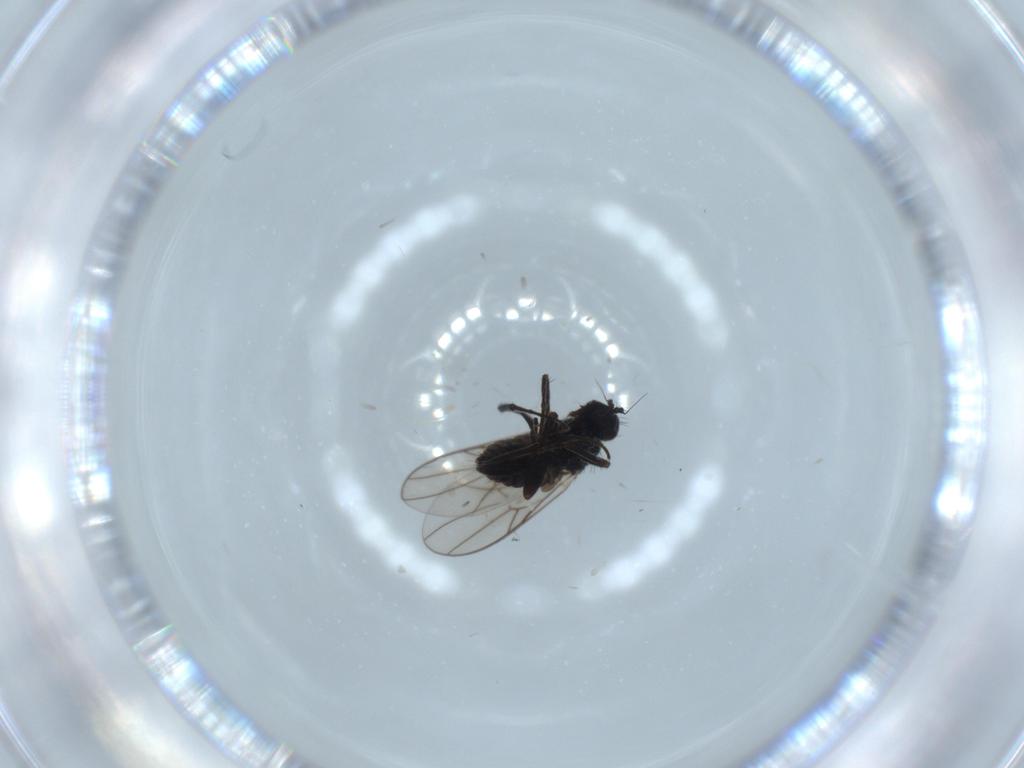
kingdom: Animalia
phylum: Arthropoda
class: Insecta
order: Diptera
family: Hybotidae
